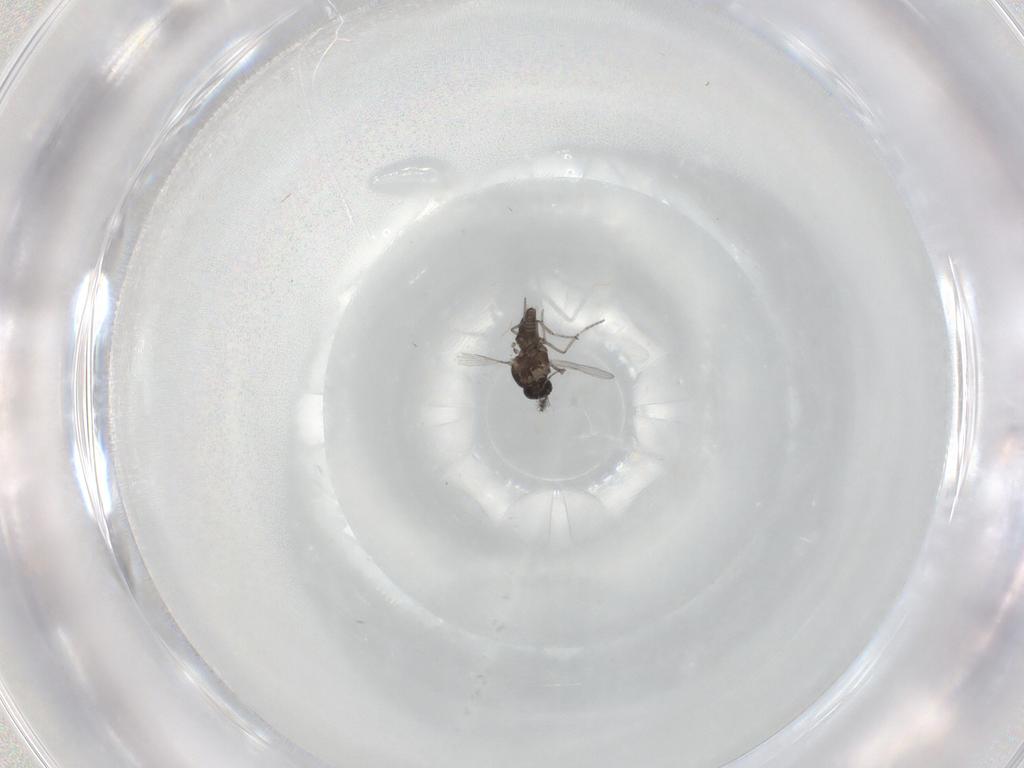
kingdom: Animalia
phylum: Arthropoda
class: Insecta
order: Diptera
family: Ceratopogonidae
